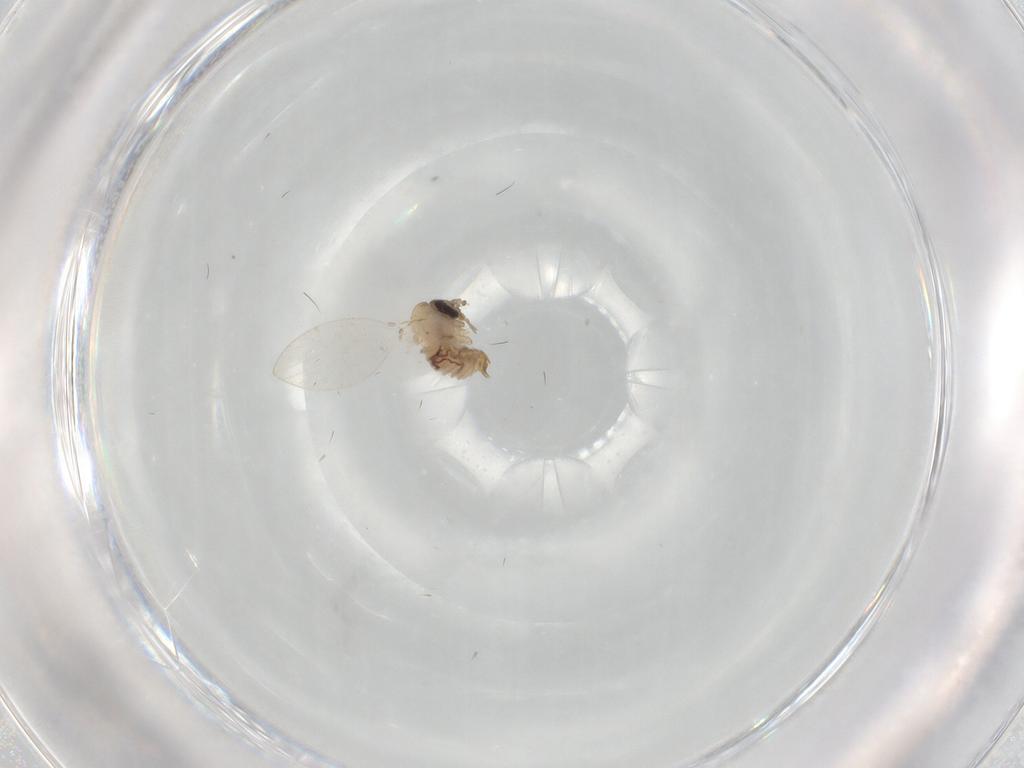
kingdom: Animalia
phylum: Arthropoda
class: Insecta
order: Diptera
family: Psychodidae
